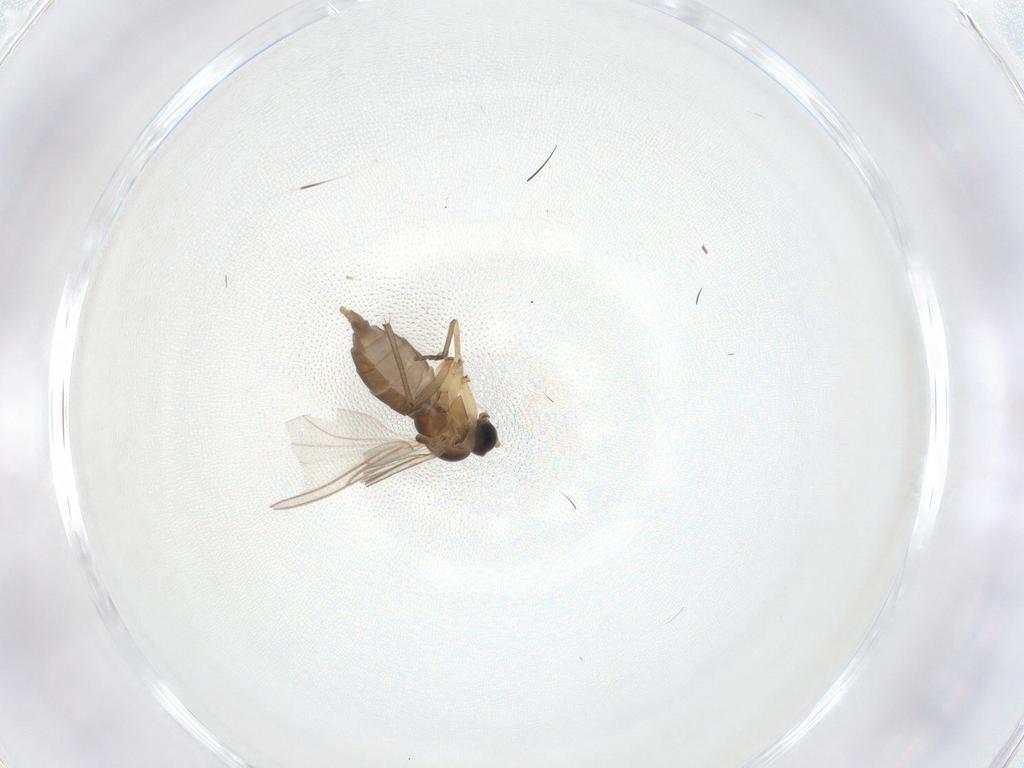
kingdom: Animalia
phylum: Arthropoda
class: Insecta
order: Diptera
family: Sciaridae
